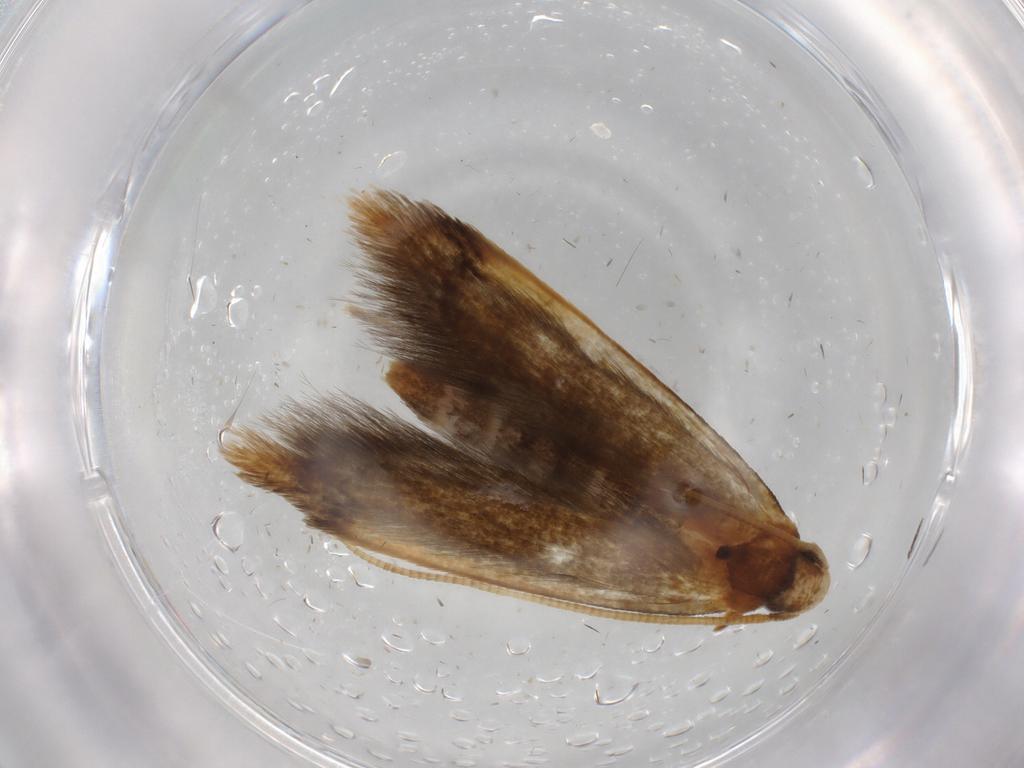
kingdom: Animalia
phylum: Arthropoda
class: Insecta
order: Lepidoptera
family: Tineidae
